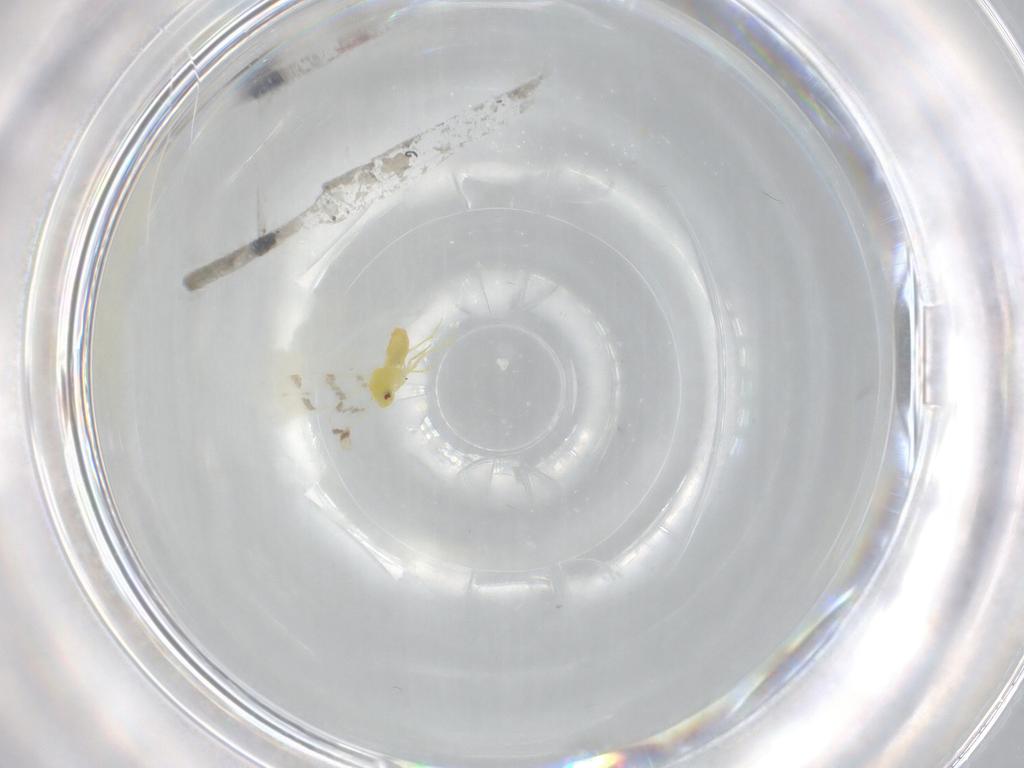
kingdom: Animalia
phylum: Arthropoda
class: Insecta
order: Hemiptera
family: Aleyrodidae
